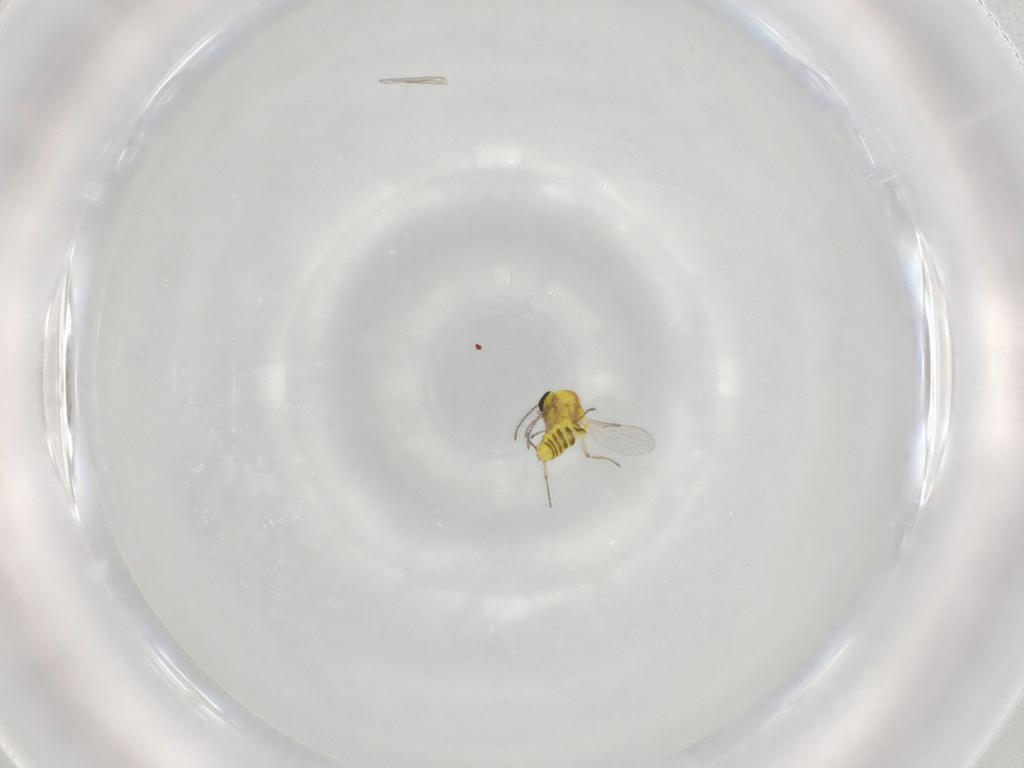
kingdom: Animalia
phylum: Arthropoda
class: Insecta
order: Diptera
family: Ceratopogonidae
